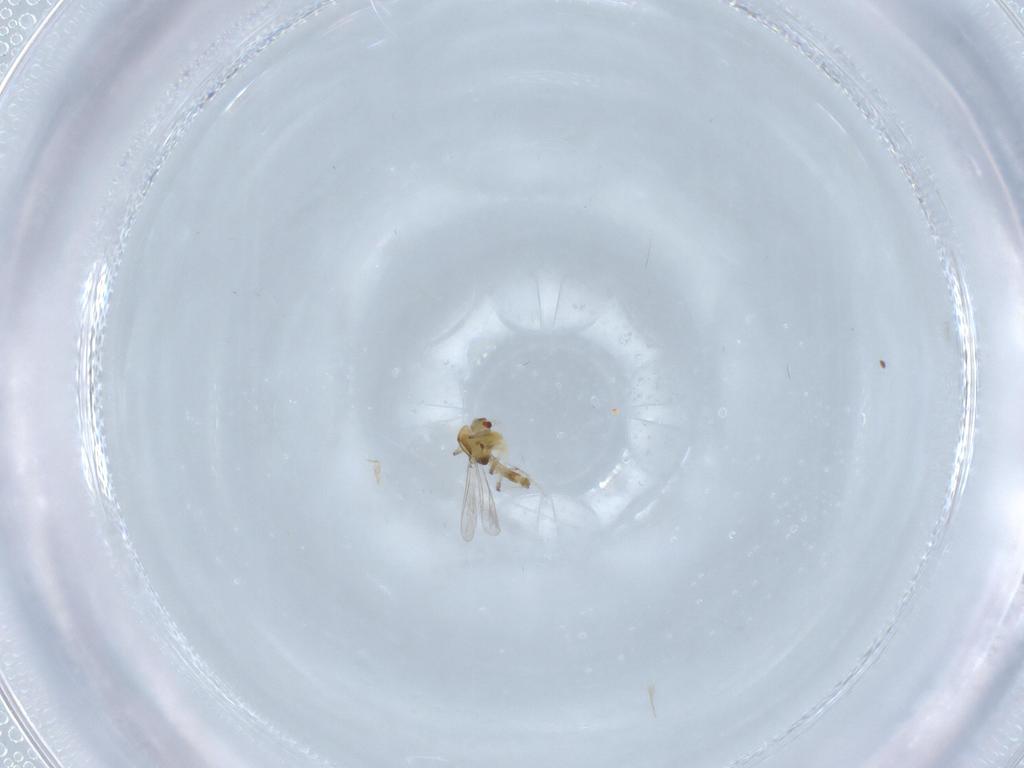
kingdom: Animalia
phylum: Arthropoda
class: Insecta
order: Diptera
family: Chironomidae
